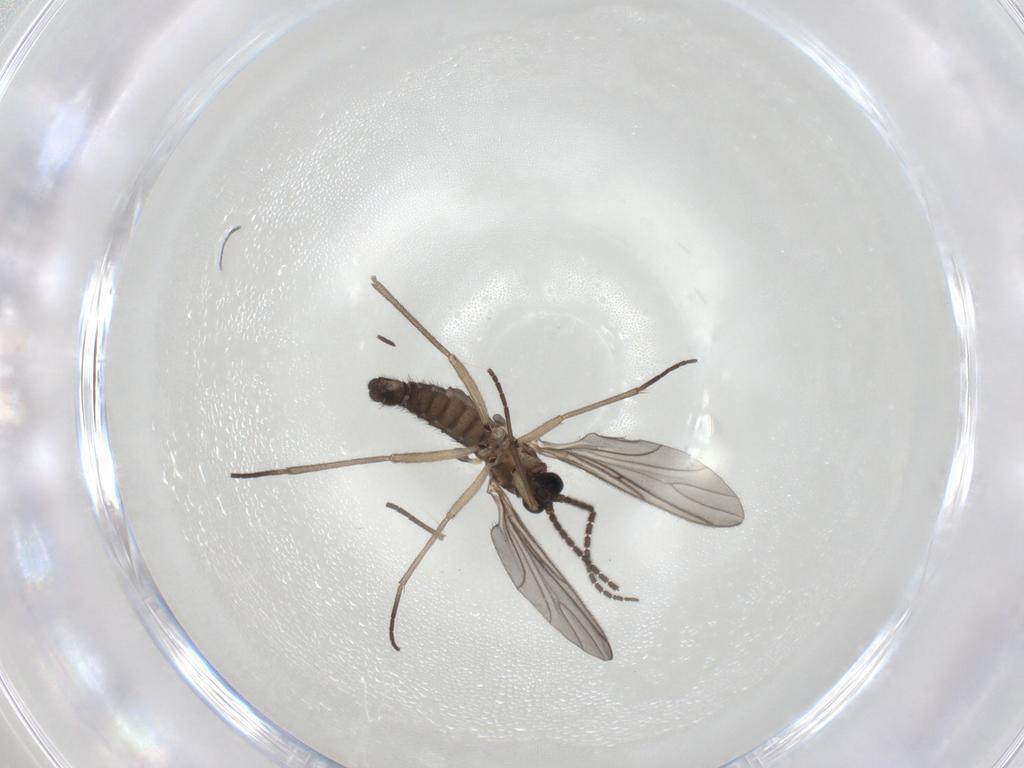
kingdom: Animalia
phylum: Arthropoda
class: Insecta
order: Diptera
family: Sciaridae
